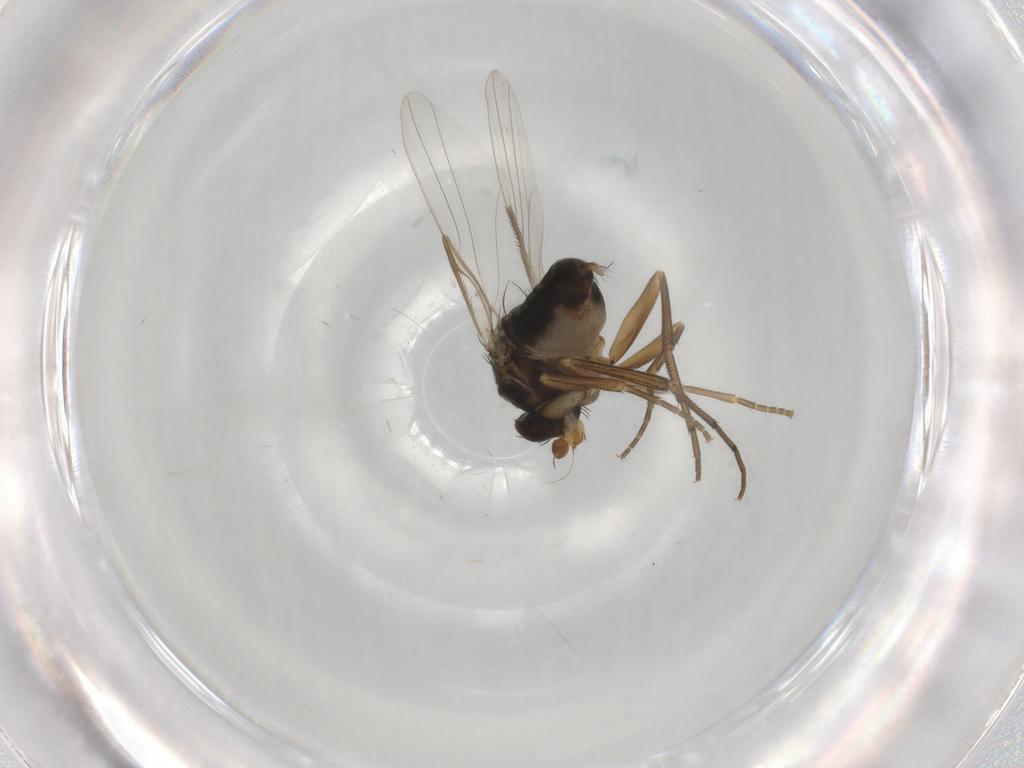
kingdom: Animalia
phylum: Arthropoda
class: Insecta
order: Diptera
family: Phoridae
